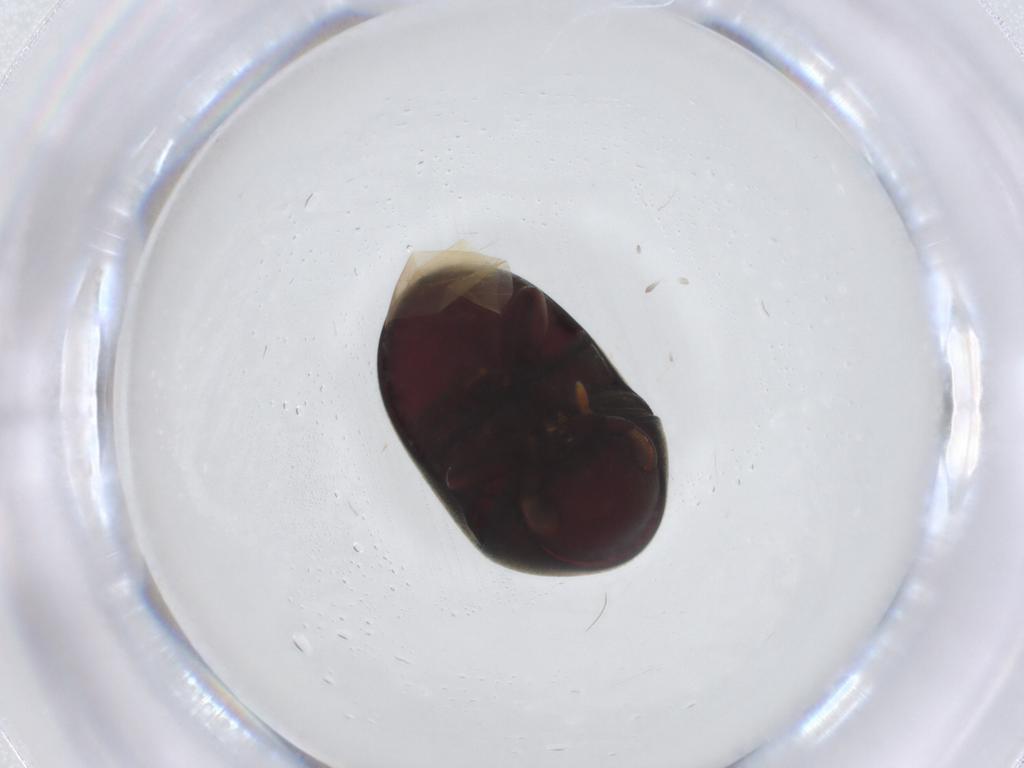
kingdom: Animalia
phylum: Arthropoda
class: Insecta
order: Coleoptera
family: Ptinidae
